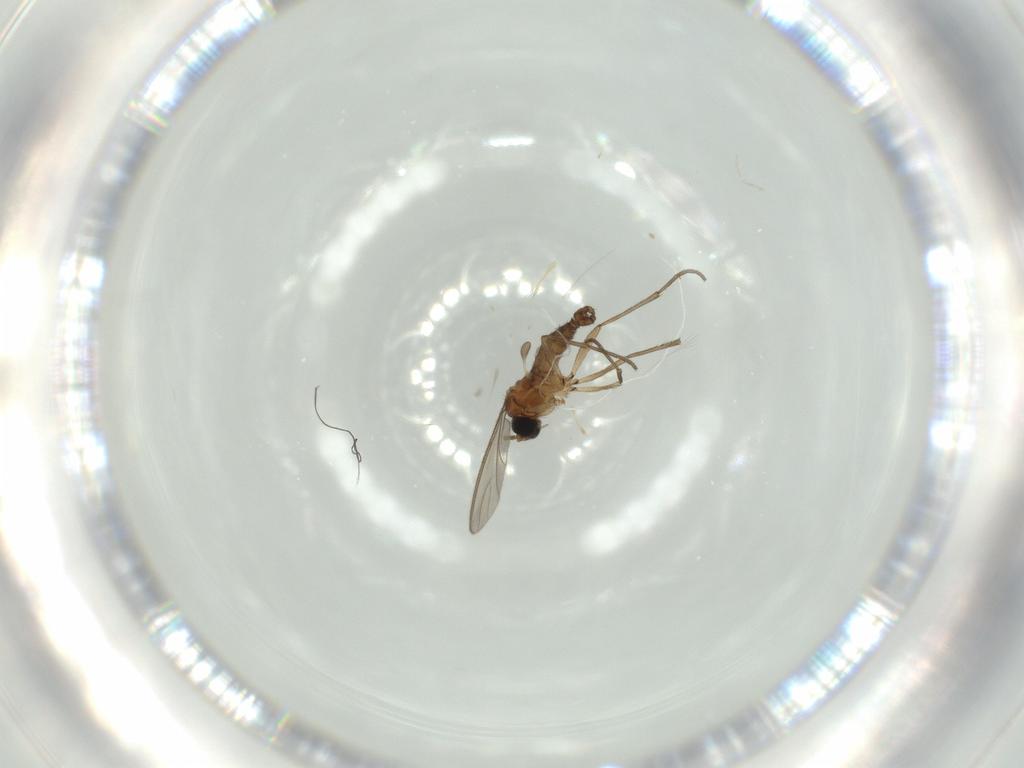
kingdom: Animalia
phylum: Arthropoda
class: Insecta
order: Diptera
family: Sciaridae
